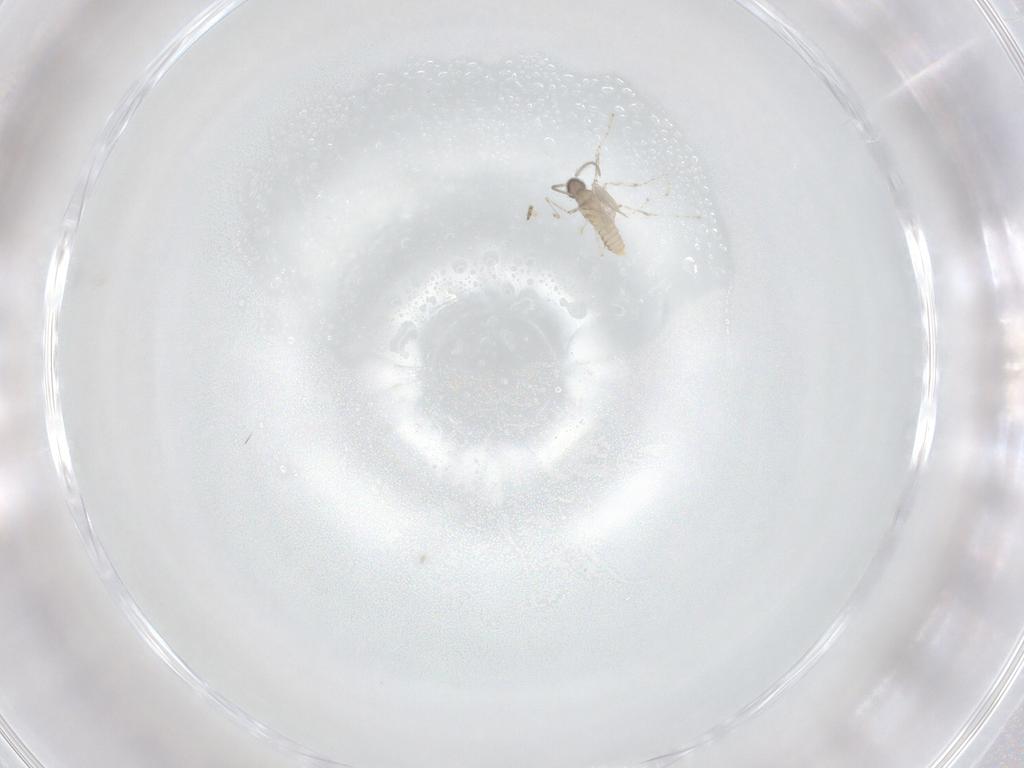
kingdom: Animalia
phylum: Arthropoda
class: Insecta
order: Diptera
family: Cecidomyiidae
